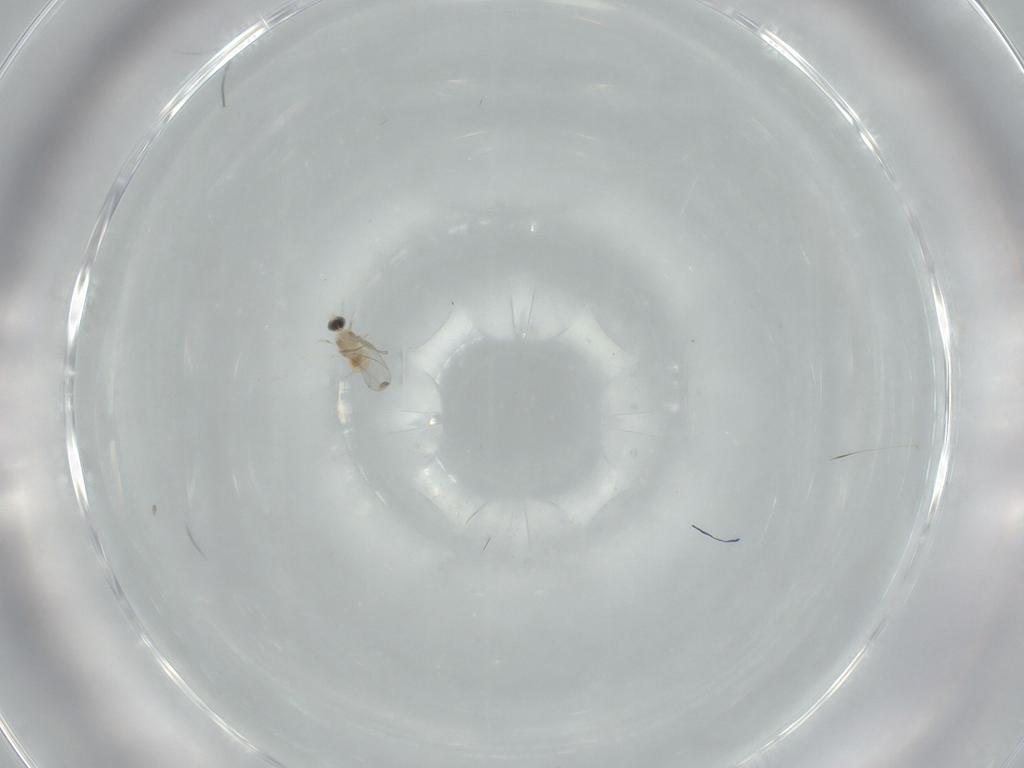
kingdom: Animalia
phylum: Arthropoda
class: Insecta
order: Diptera
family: Cecidomyiidae
